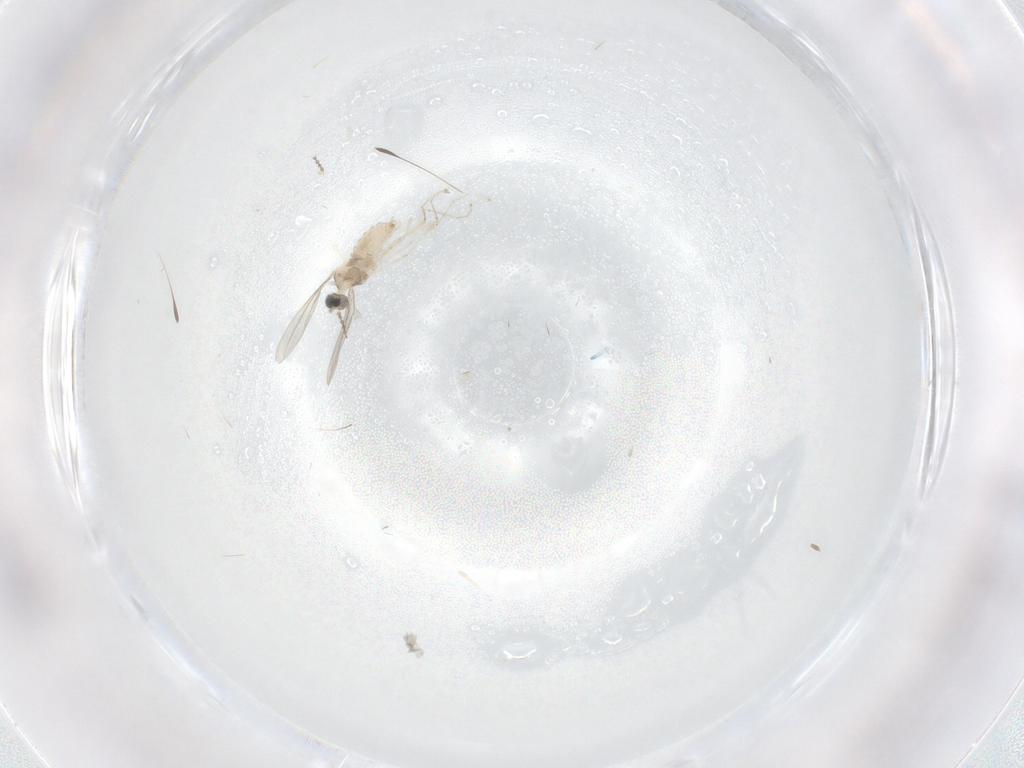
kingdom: Animalia
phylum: Arthropoda
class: Insecta
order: Diptera
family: Cecidomyiidae
